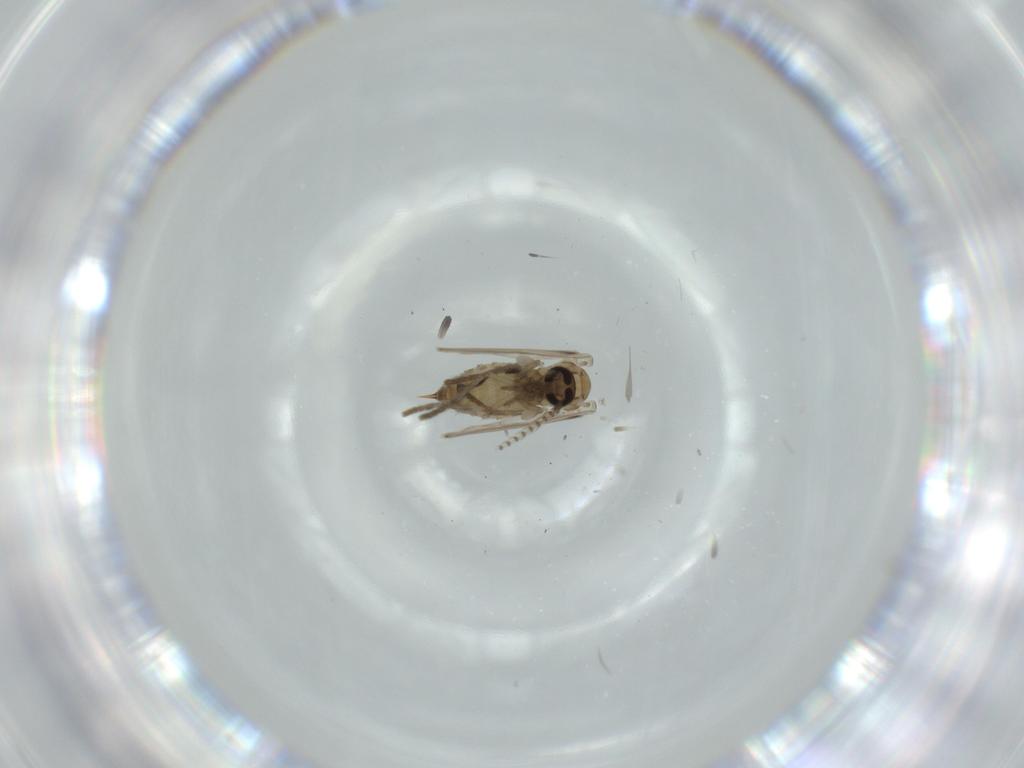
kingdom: Animalia
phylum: Arthropoda
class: Insecta
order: Diptera
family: Psychodidae
